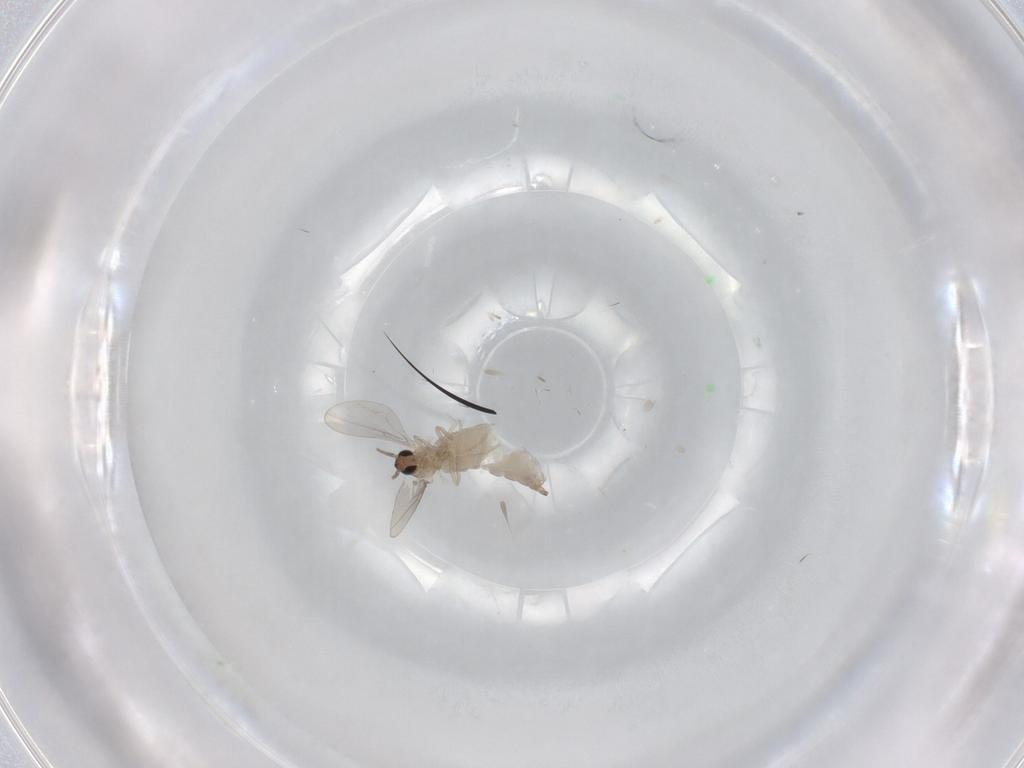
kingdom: Animalia
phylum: Arthropoda
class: Insecta
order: Diptera
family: Cecidomyiidae
